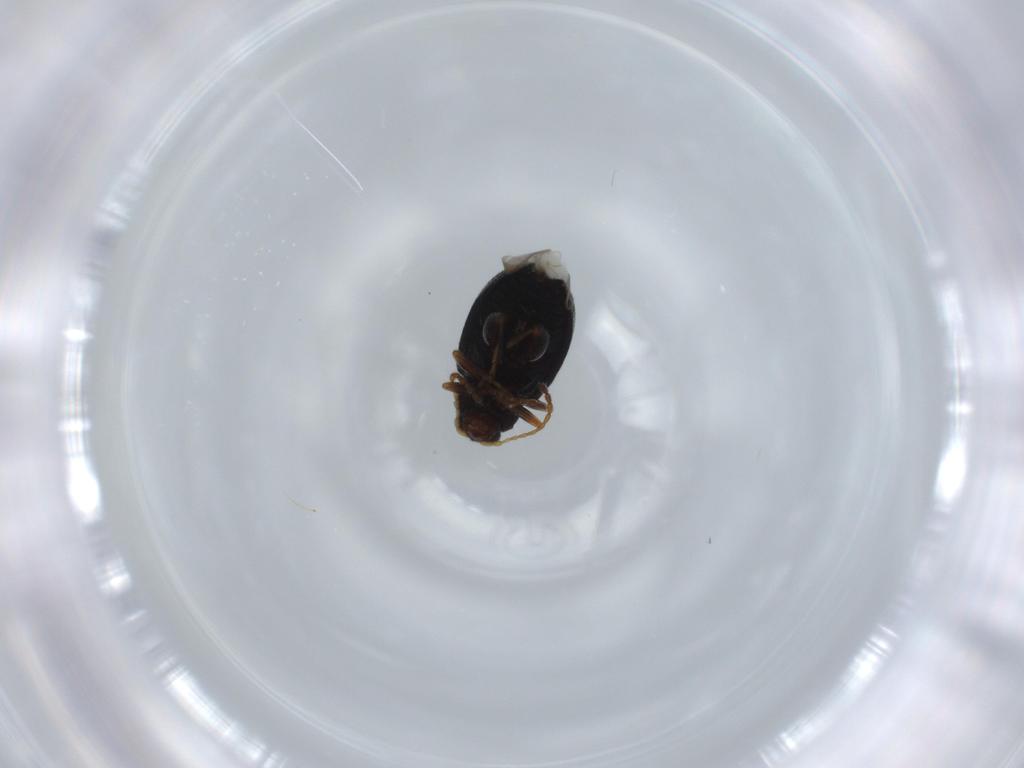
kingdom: Animalia
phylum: Arthropoda
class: Insecta
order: Coleoptera
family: Chrysomelidae
